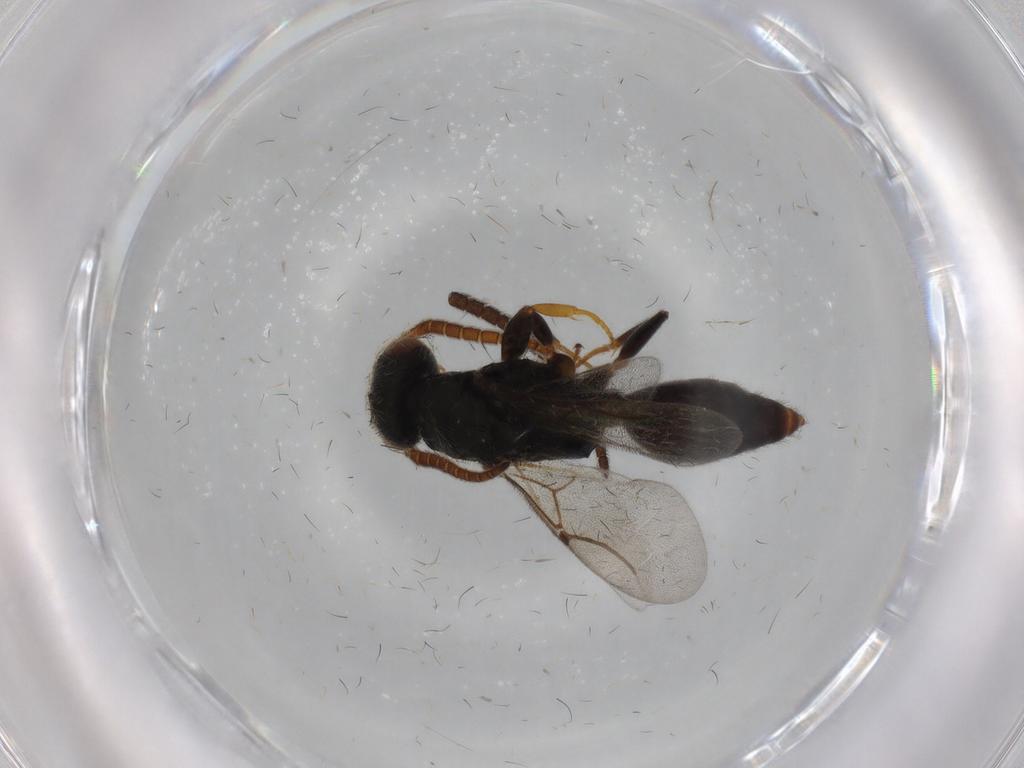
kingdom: Animalia
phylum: Arthropoda
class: Insecta
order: Hymenoptera
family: Bethylidae
